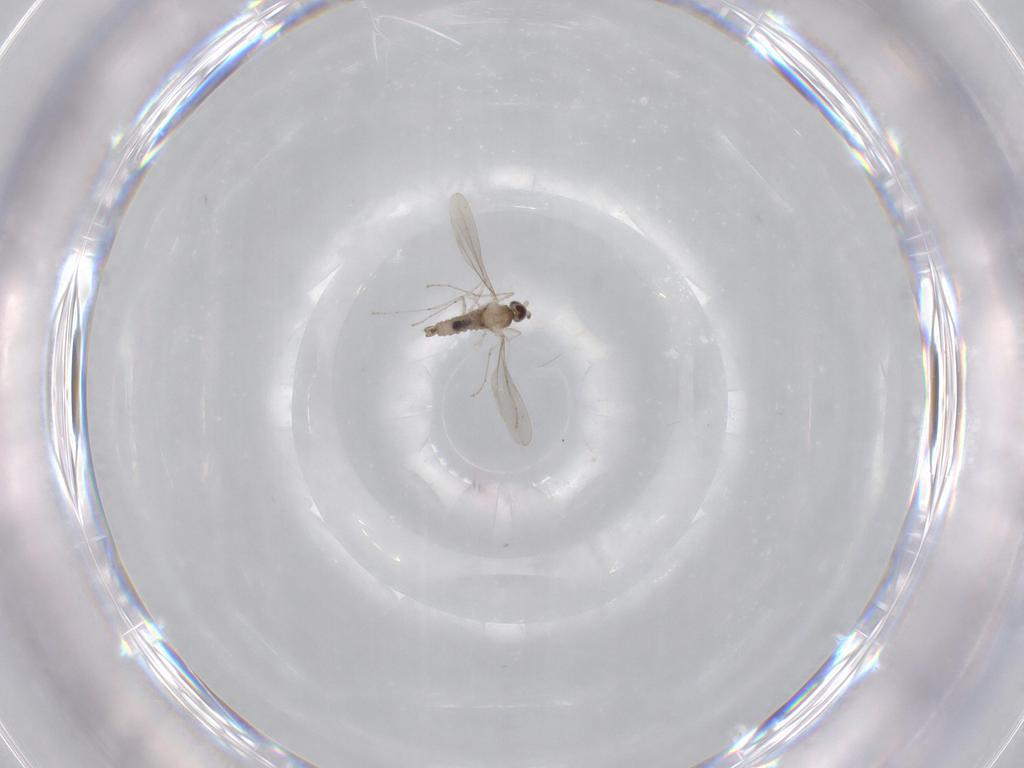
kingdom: Animalia
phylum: Arthropoda
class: Insecta
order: Diptera
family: Cecidomyiidae
